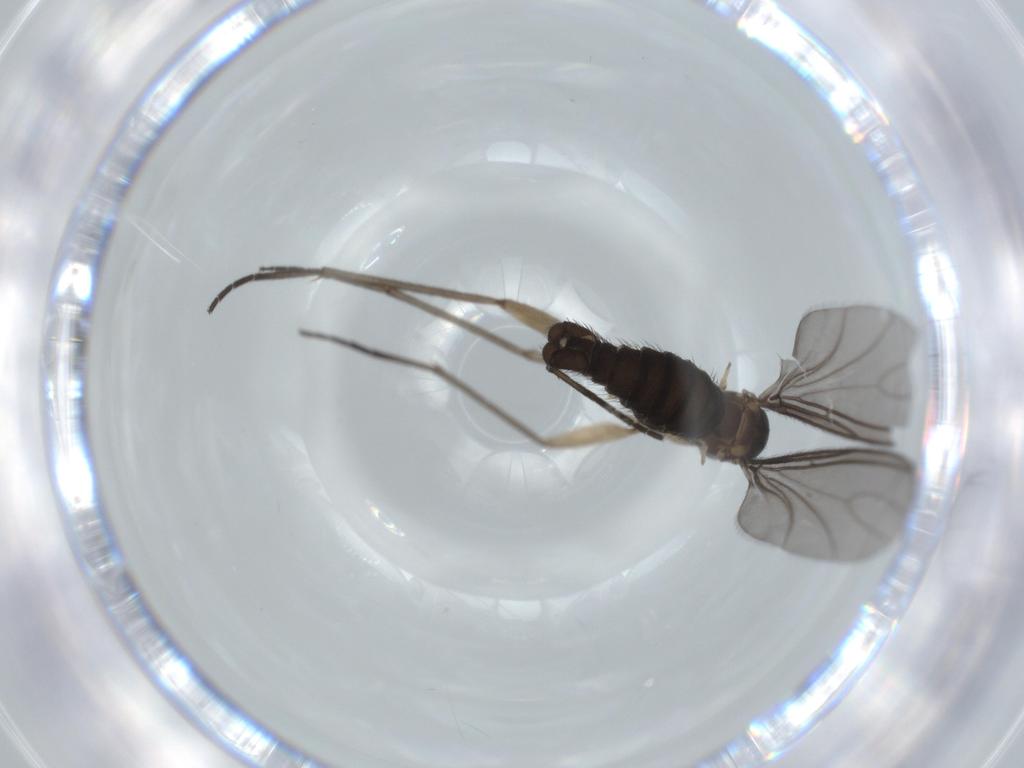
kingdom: Animalia
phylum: Arthropoda
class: Insecta
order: Diptera
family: Sciaridae
